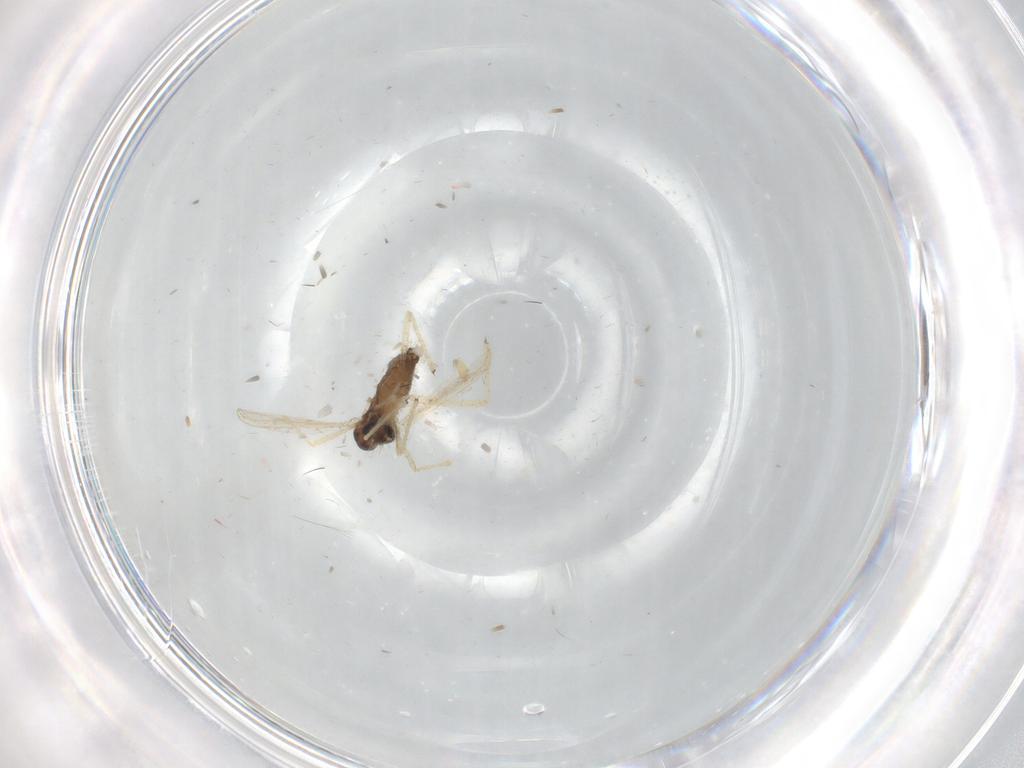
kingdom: Animalia
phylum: Arthropoda
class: Insecta
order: Diptera
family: Chironomidae
